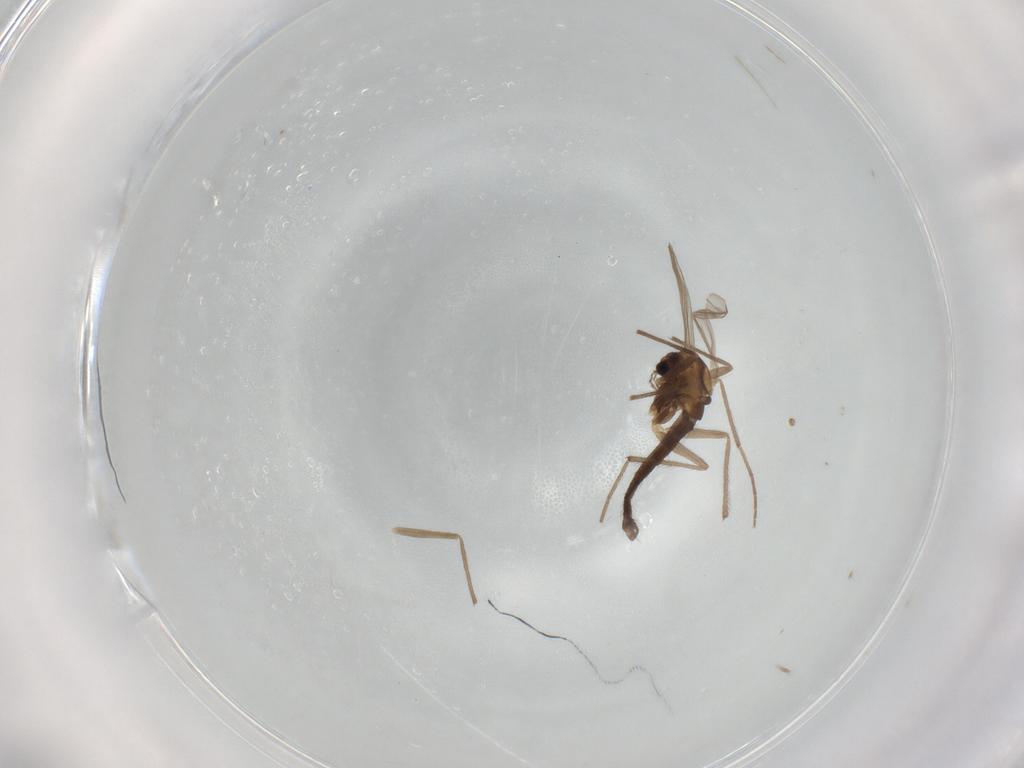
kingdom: Animalia
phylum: Arthropoda
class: Insecta
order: Diptera
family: Chironomidae
